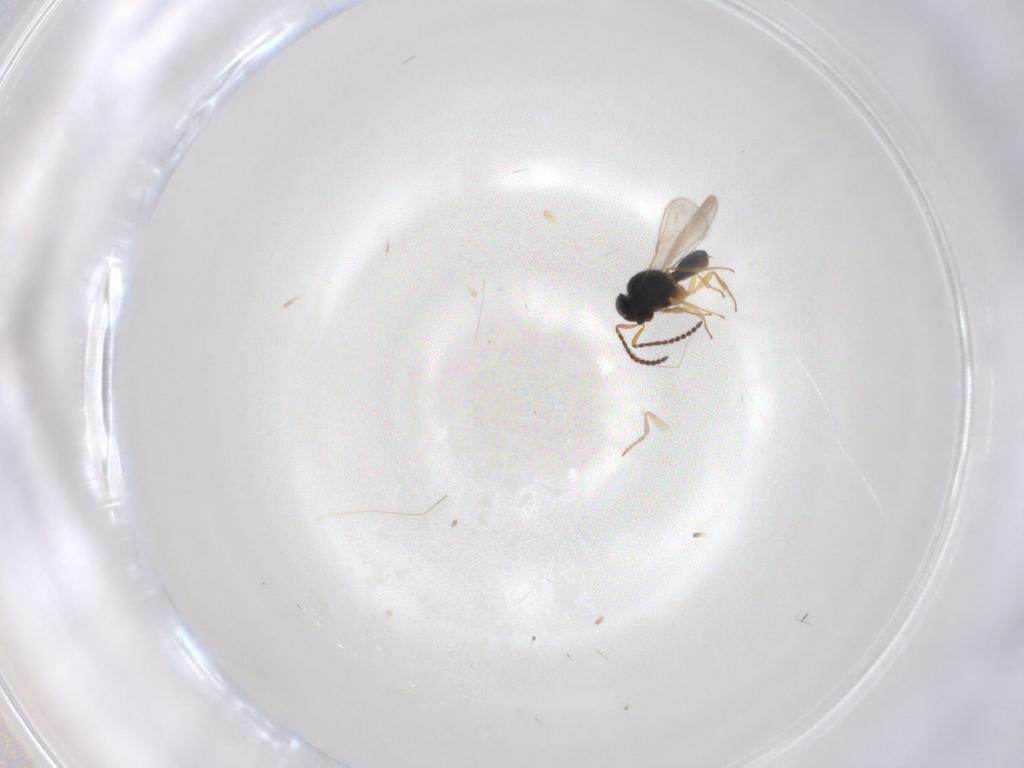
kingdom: Animalia
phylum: Arthropoda
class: Insecta
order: Hymenoptera
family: Scelionidae
